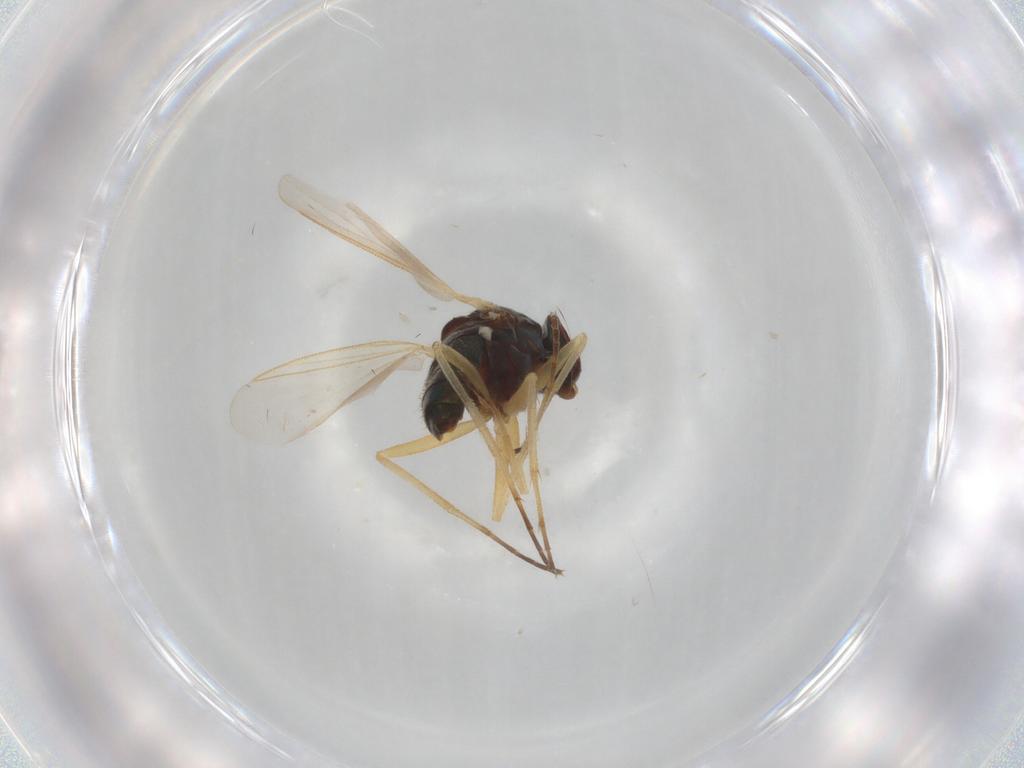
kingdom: Animalia
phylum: Arthropoda
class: Insecta
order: Diptera
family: Dolichopodidae
